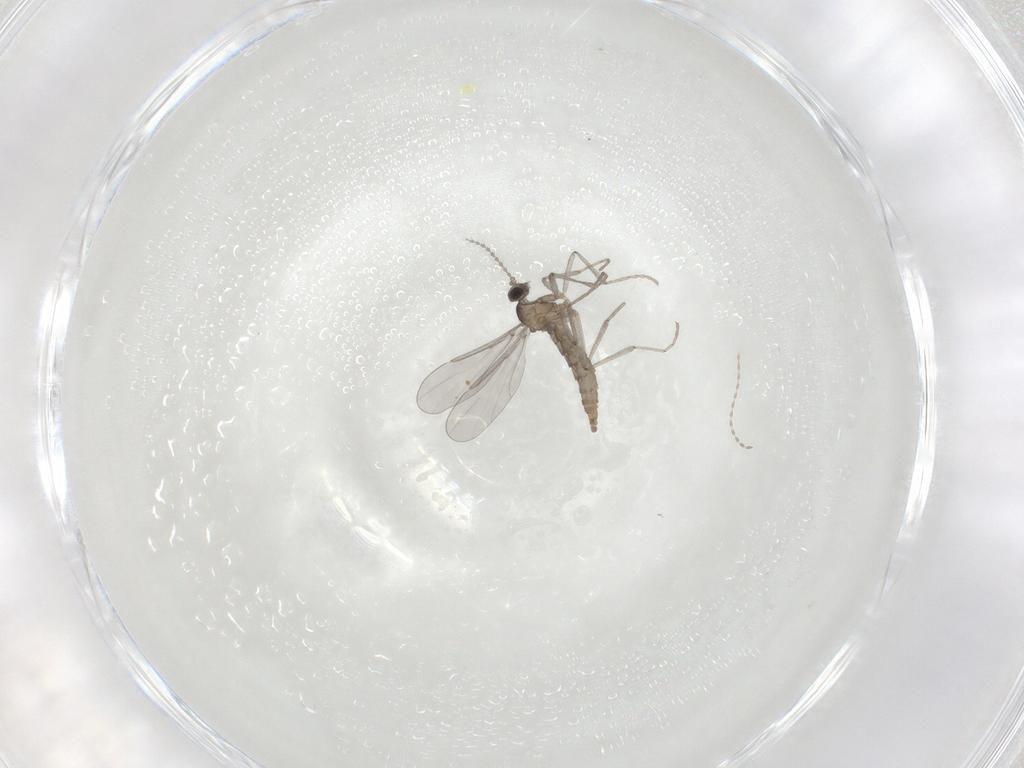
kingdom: Animalia
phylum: Arthropoda
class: Insecta
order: Diptera
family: Cecidomyiidae
